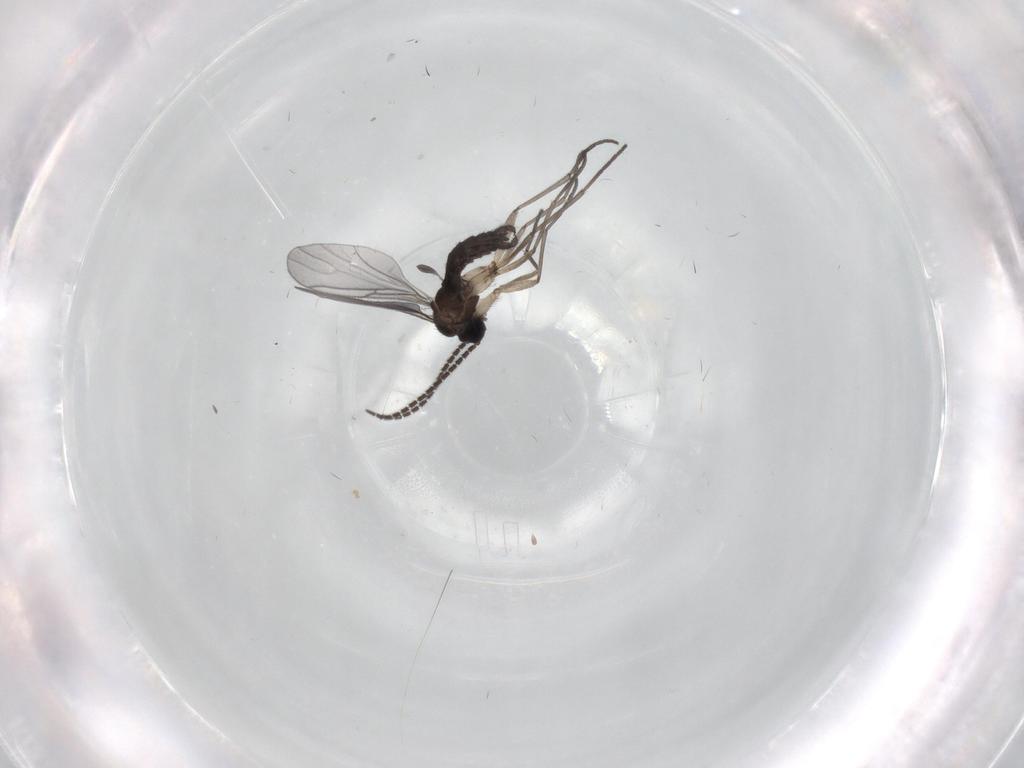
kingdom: Animalia
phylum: Arthropoda
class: Insecta
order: Diptera
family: Sciaridae
